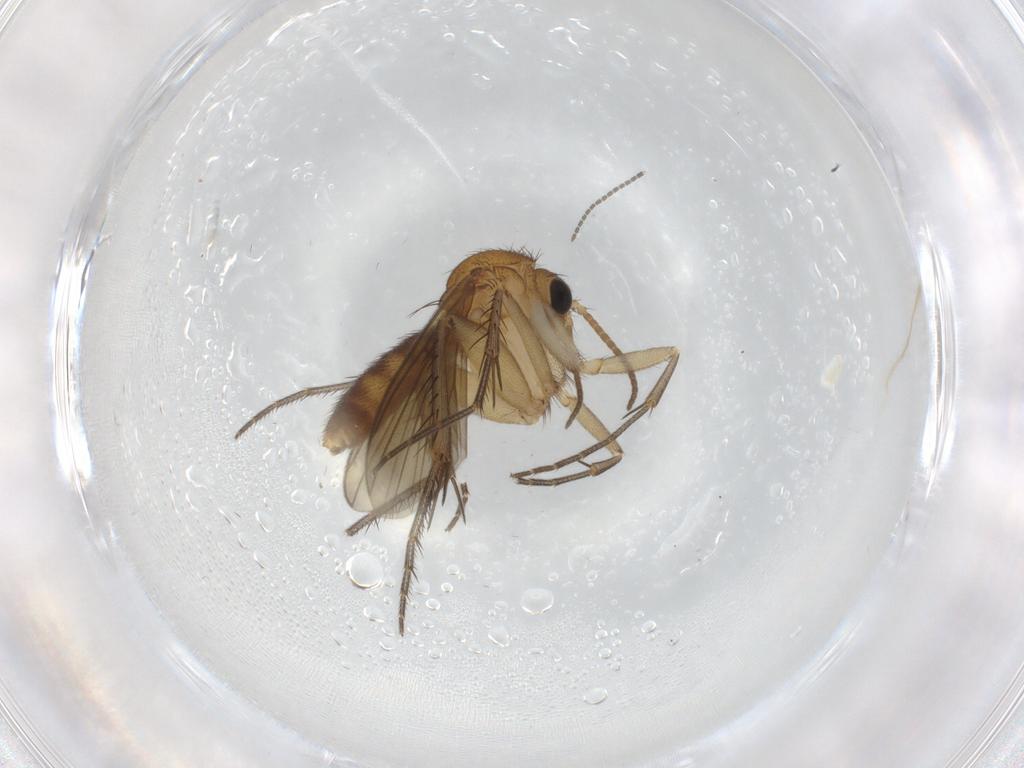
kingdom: Animalia
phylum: Arthropoda
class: Insecta
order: Diptera
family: Mycetophilidae
